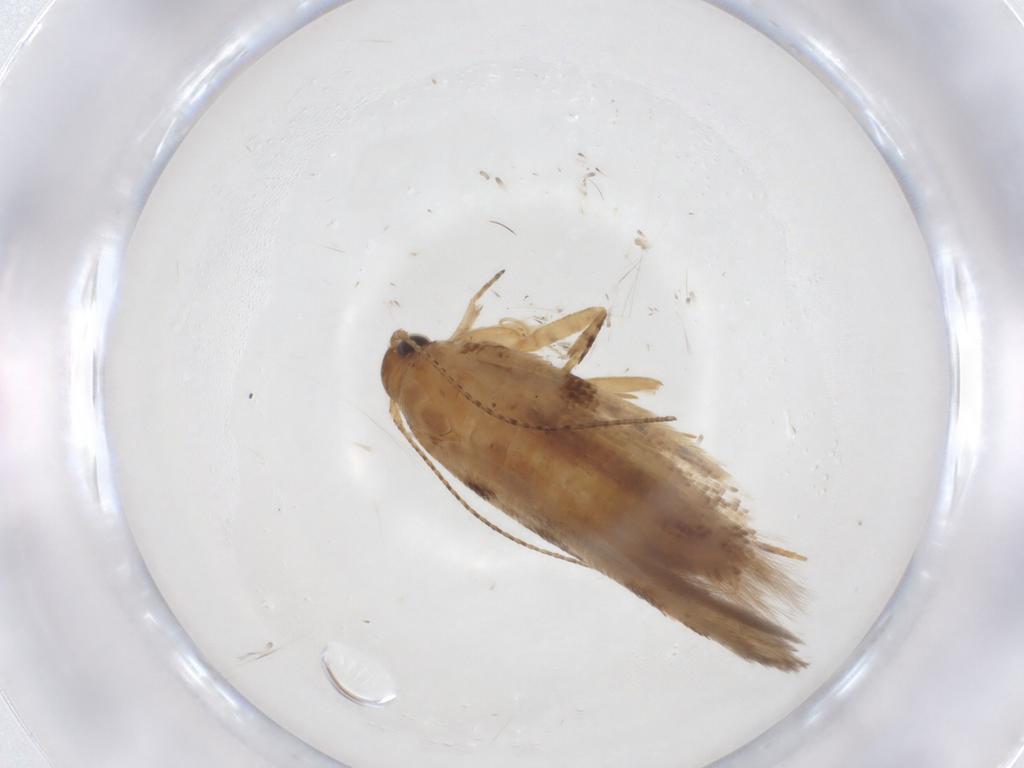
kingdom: Animalia
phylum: Arthropoda
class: Insecta
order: Lepidoptera
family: Gelechiidae
